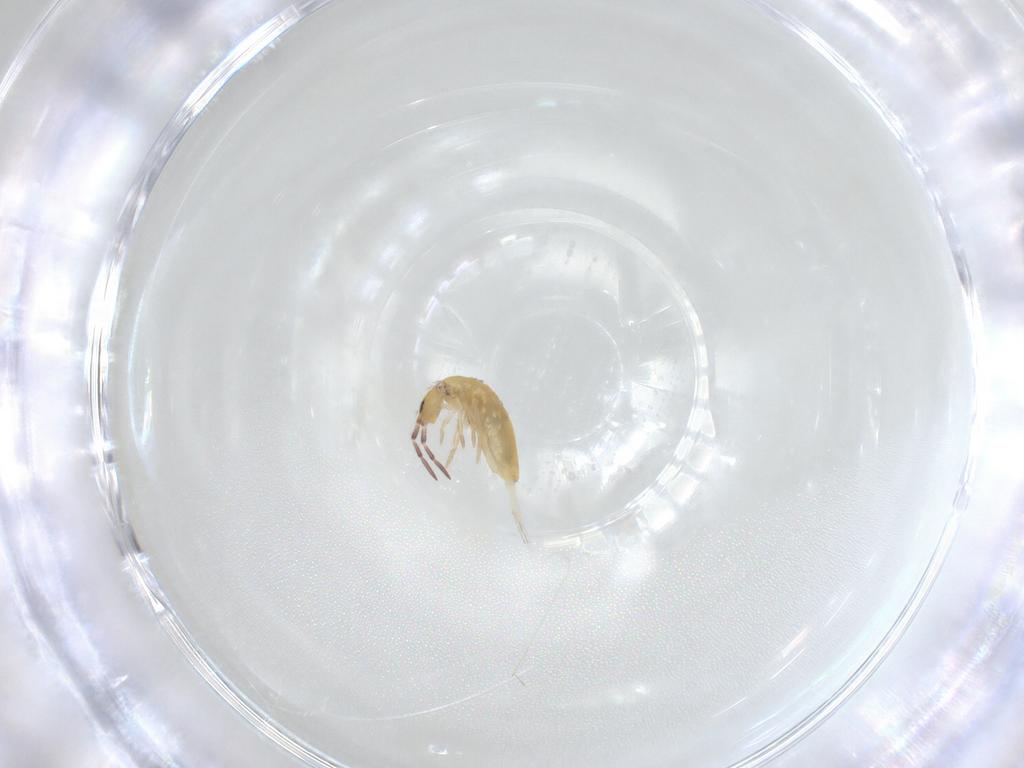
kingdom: Animalia
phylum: Arthropoda
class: Collembola
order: Entomobryomorpha
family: Entomobryidae
